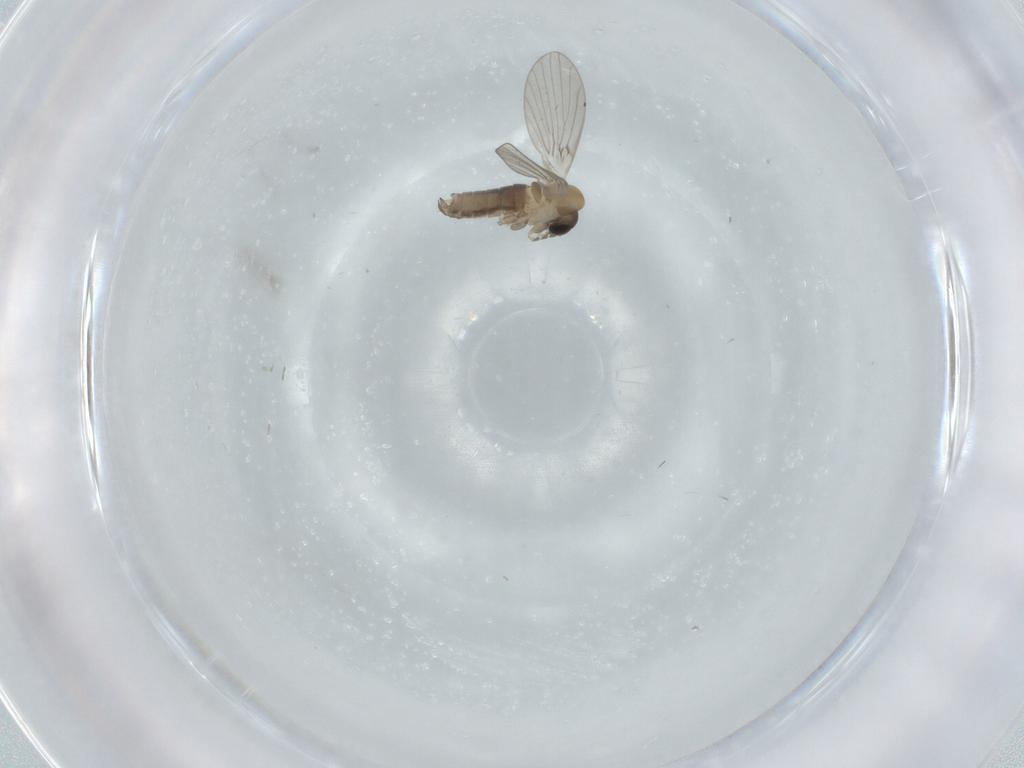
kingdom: Animalia
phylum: Arthropoda
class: Insecta
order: Diptera
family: Psychodidae
